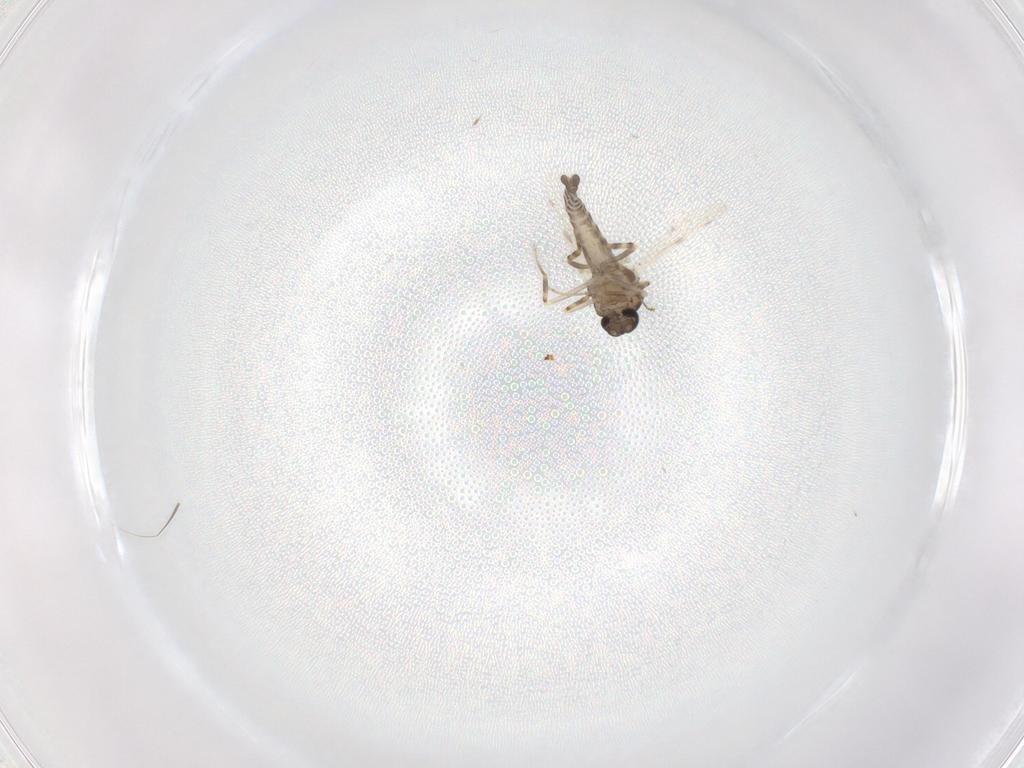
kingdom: Animalia
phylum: Arthropoda
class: Insecta
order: Diptera
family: Ceratopogonidae
